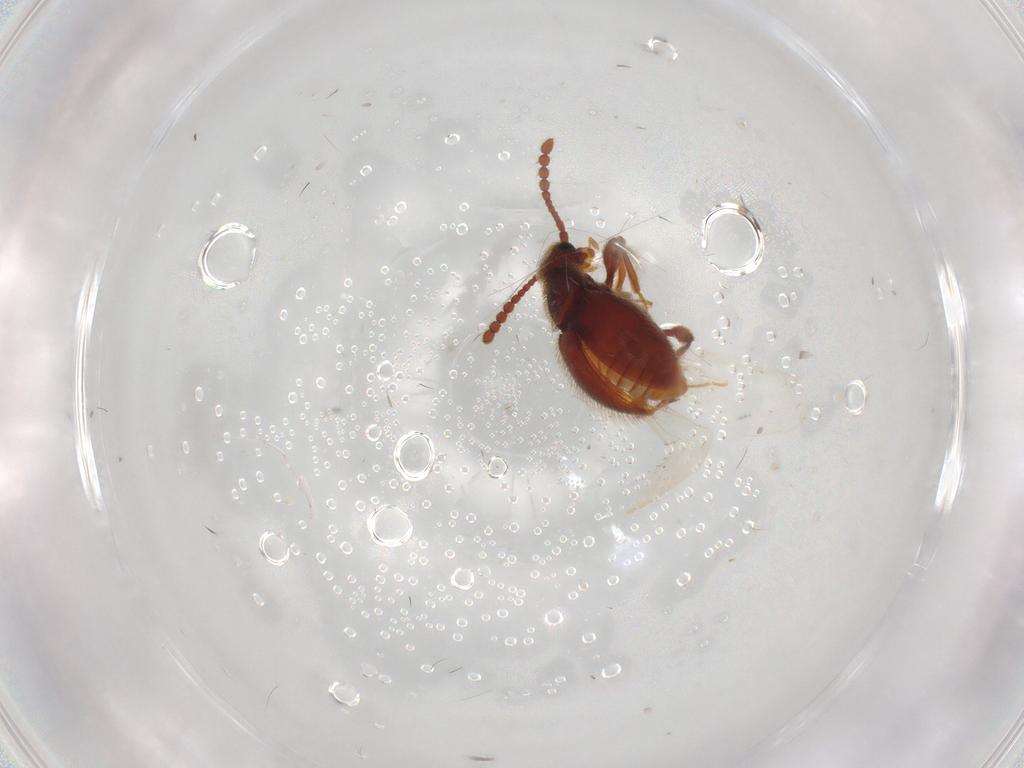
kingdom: Animalia
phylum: Arthropoda
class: Insecta
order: Coleoptera
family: Staphylinidae
